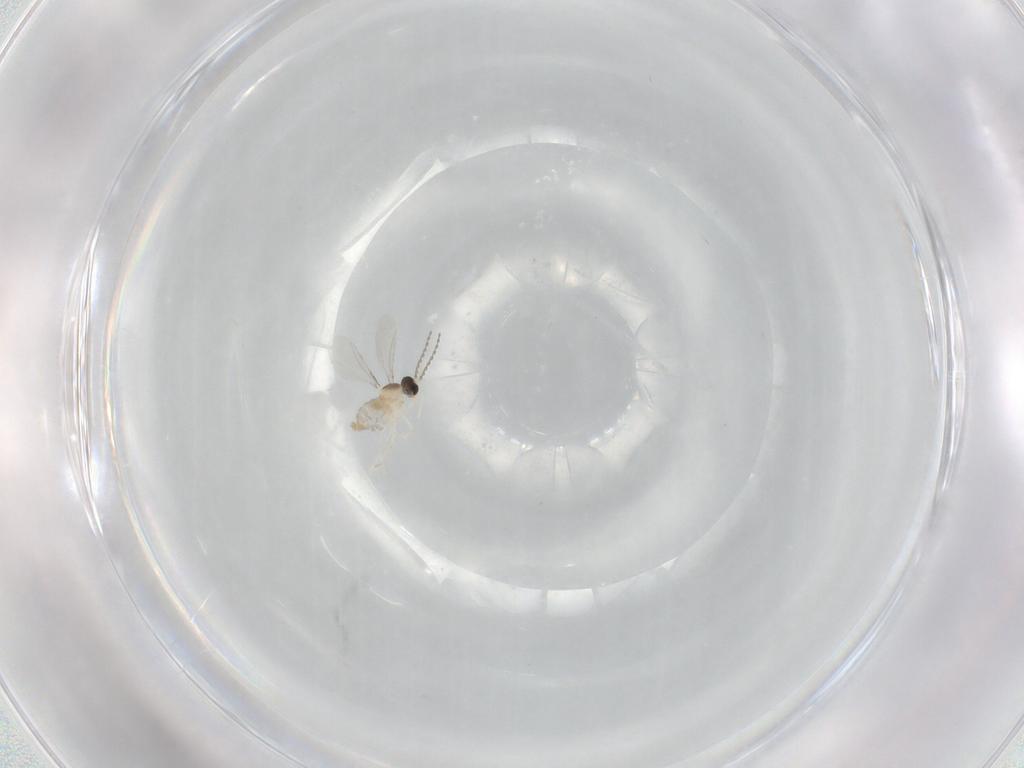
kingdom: Animalia
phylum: Arthropoda
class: Insecta
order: Diptera
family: Cecidomyiidae
